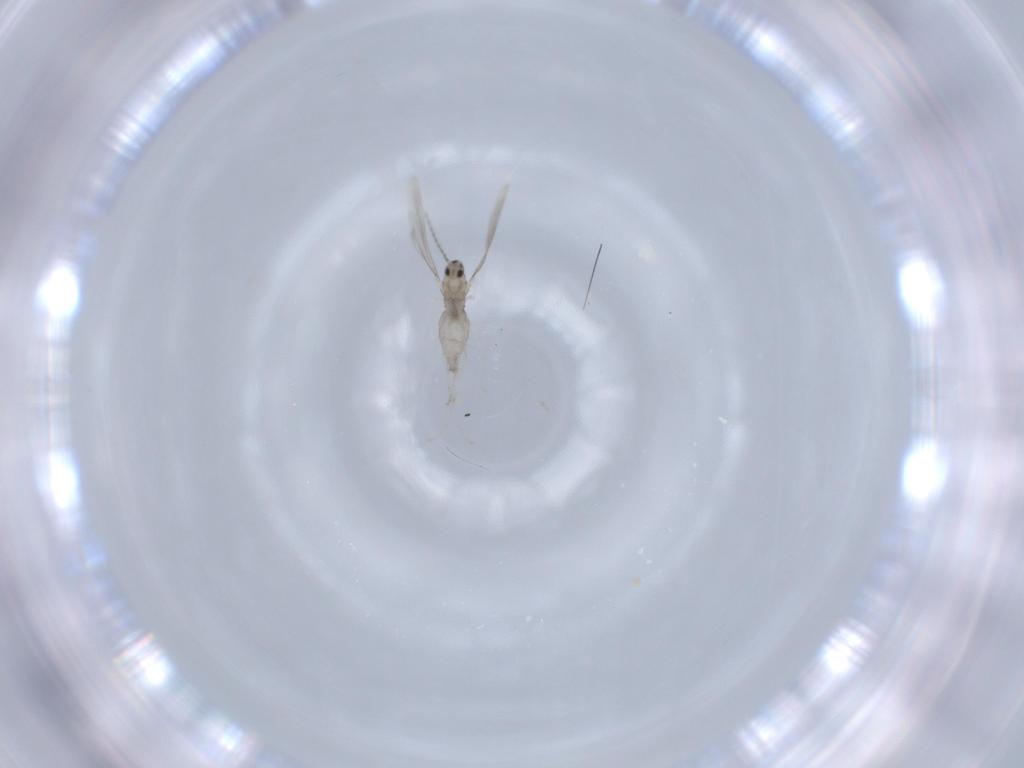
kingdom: Animalia
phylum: Arthropoda
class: Insecta
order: Diptera
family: Cecidomyiidae
